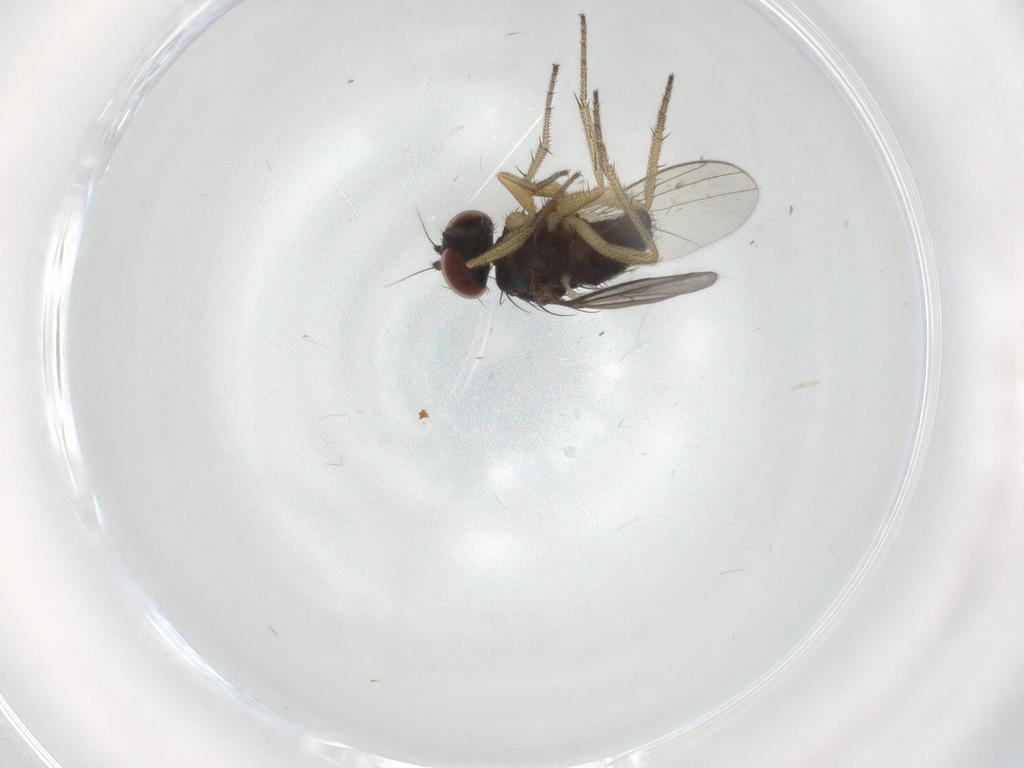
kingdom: Animalia
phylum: Arthropoda
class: Insecta
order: Diptera
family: Dolichopodidae
